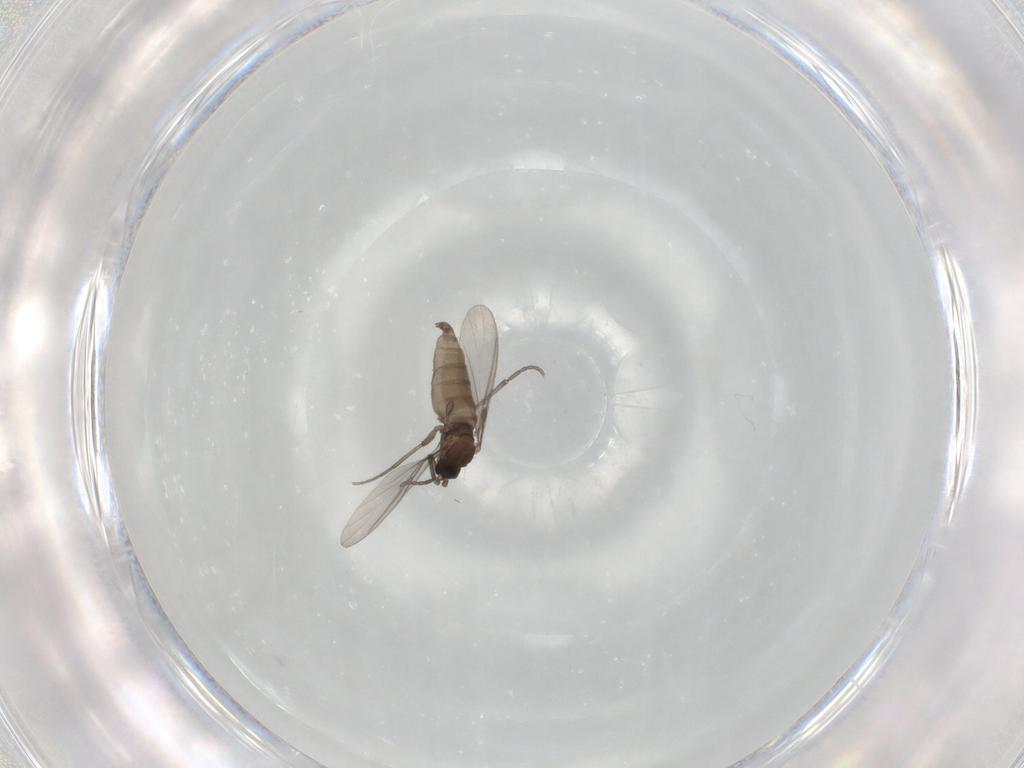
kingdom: Animalia
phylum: Arthropoda
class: Insecta
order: Diptera
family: Sciaridae
